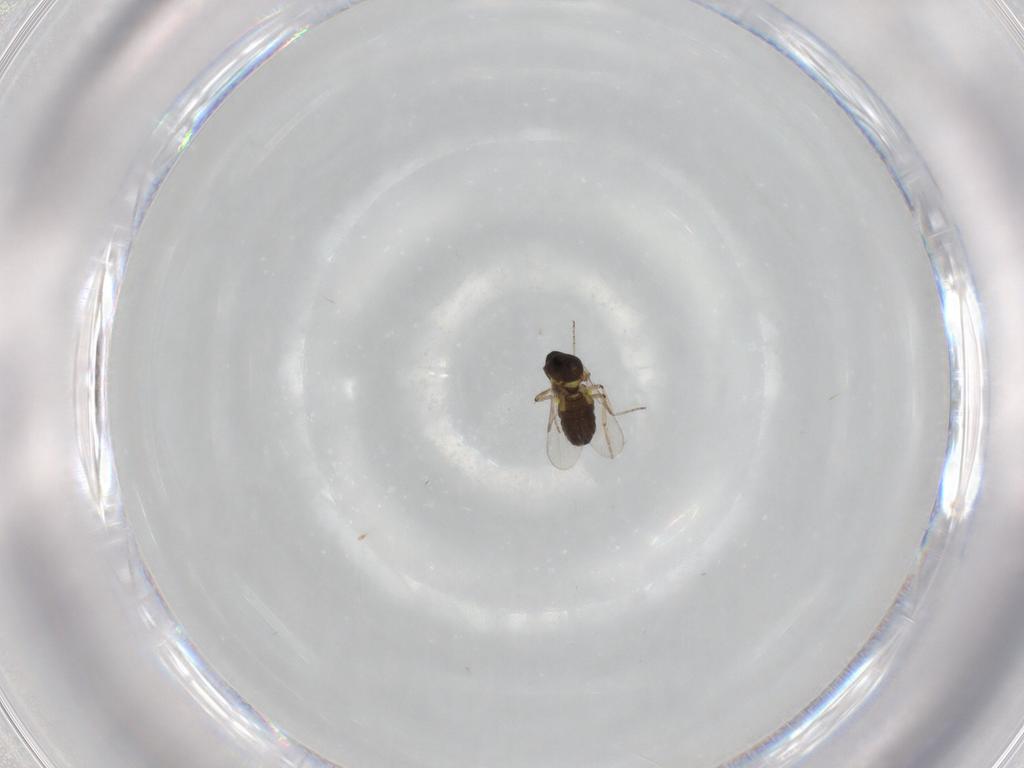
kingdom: Animalia
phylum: Arthropoda
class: Insecta
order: Diptera
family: Ceratopogonidae
